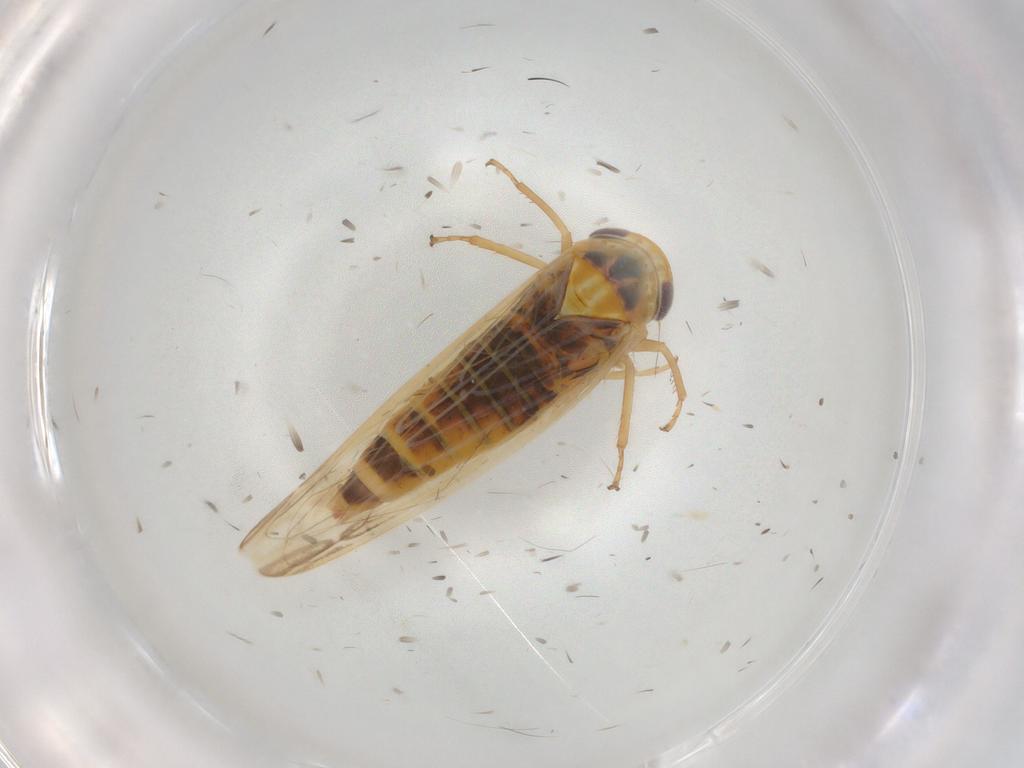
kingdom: Animalia
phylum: Arthropoda
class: Insecta
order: Hemiptera
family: Cicadellidae
